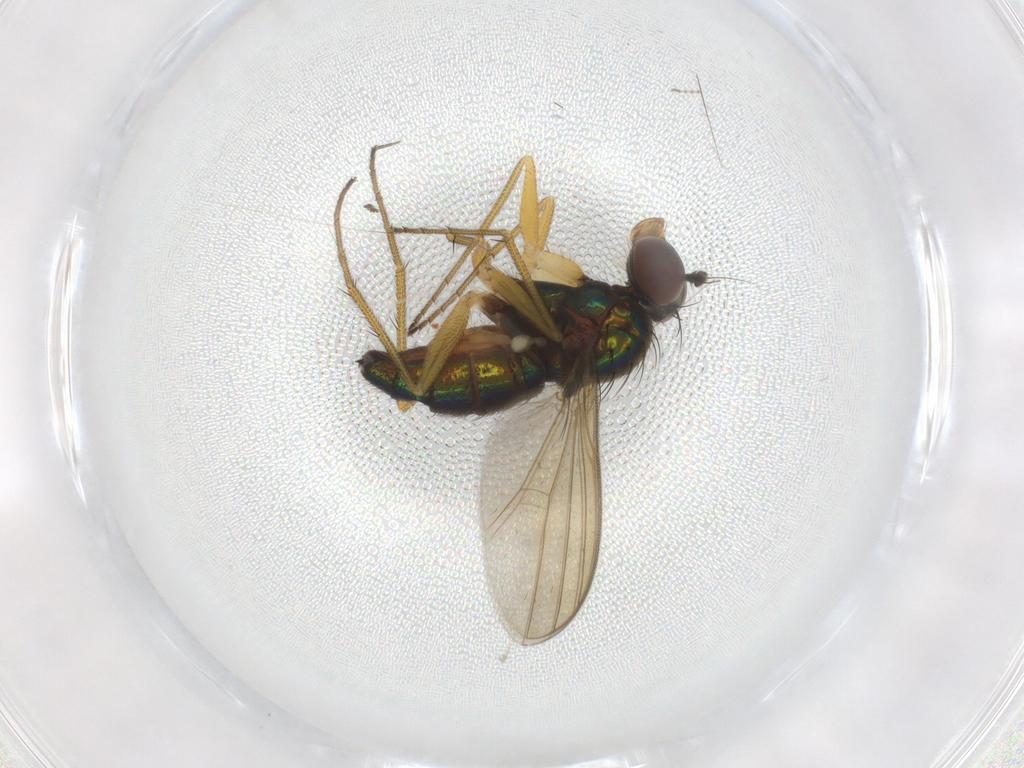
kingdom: Animalia
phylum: Arthropoda
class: Insecta
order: Diptera
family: Dolichopodidae
